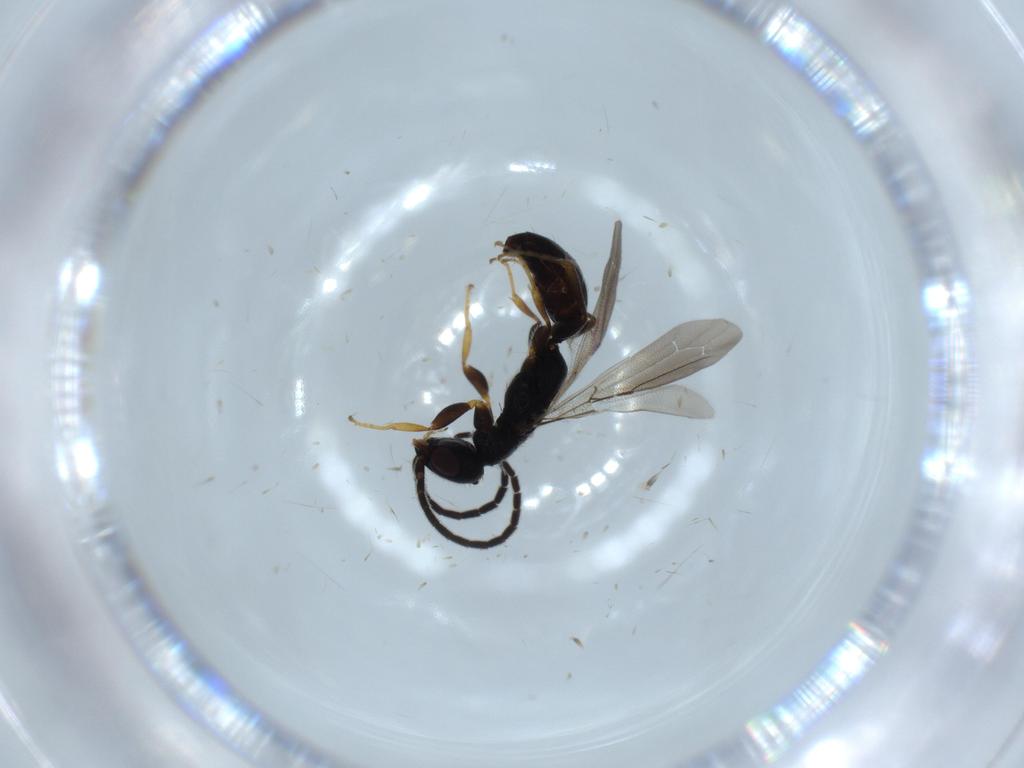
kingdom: Animalia
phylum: Arthropoda
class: Insecta
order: Hymenoptera
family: Bethylidae
